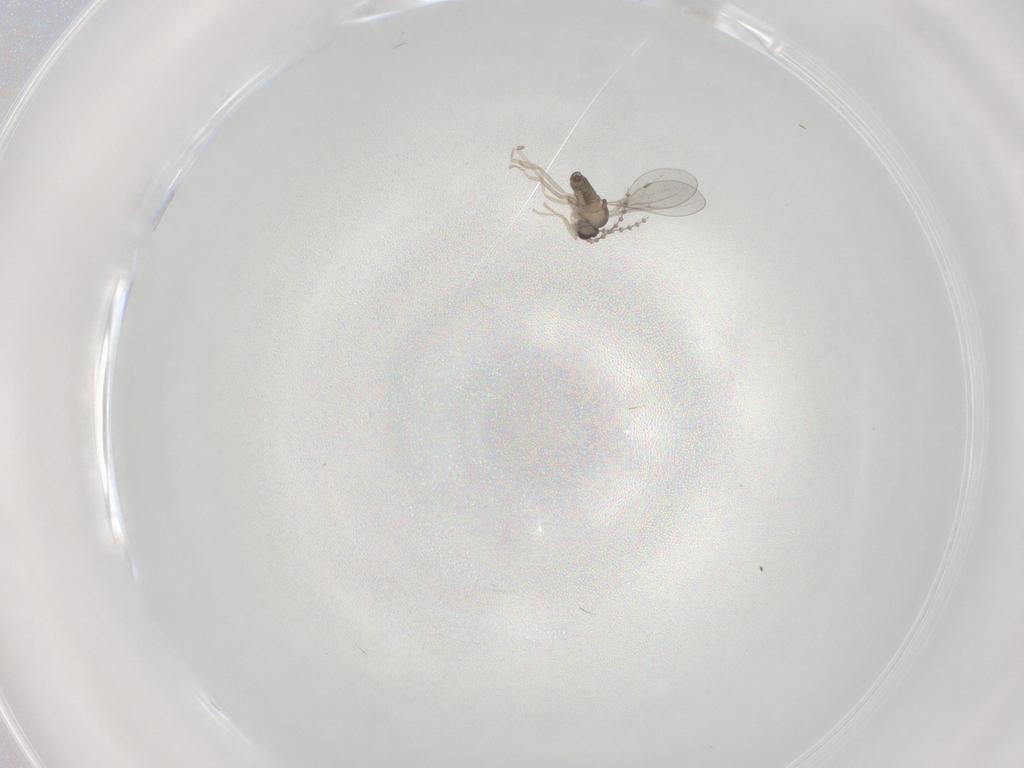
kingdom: Animalia
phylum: Arthropoda
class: Insecta
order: Diptera
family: Cecidomyiidae
